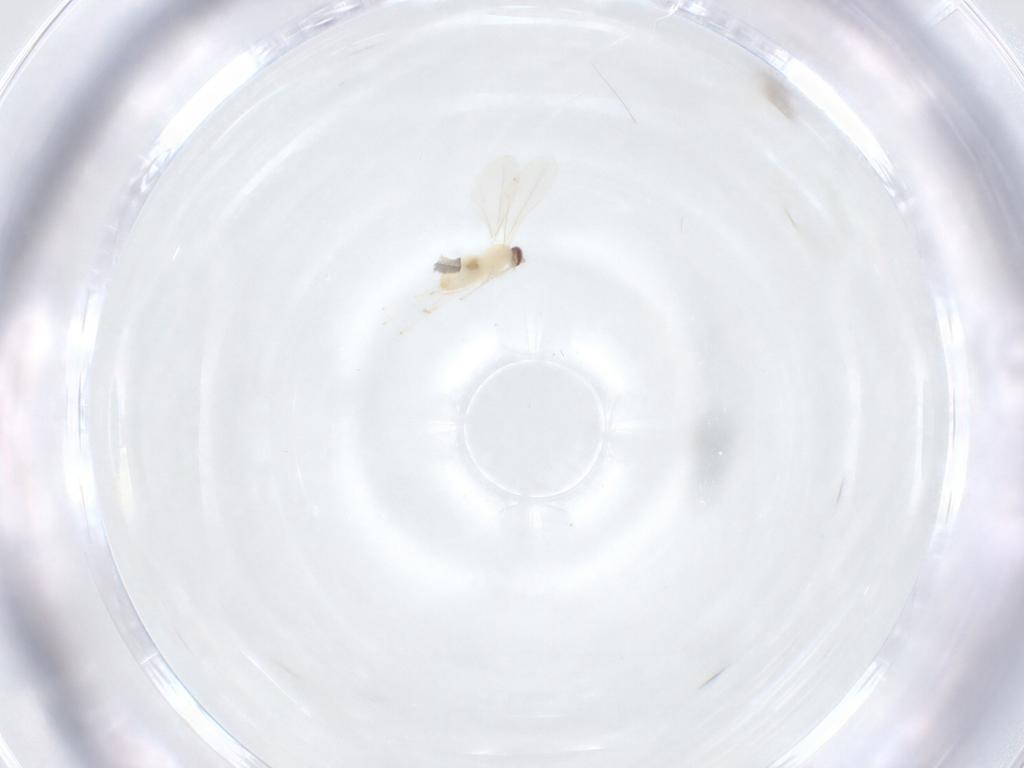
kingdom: Animalia
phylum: Arthropoda
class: Insecta
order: Diptera
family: Cecidomyiidae
